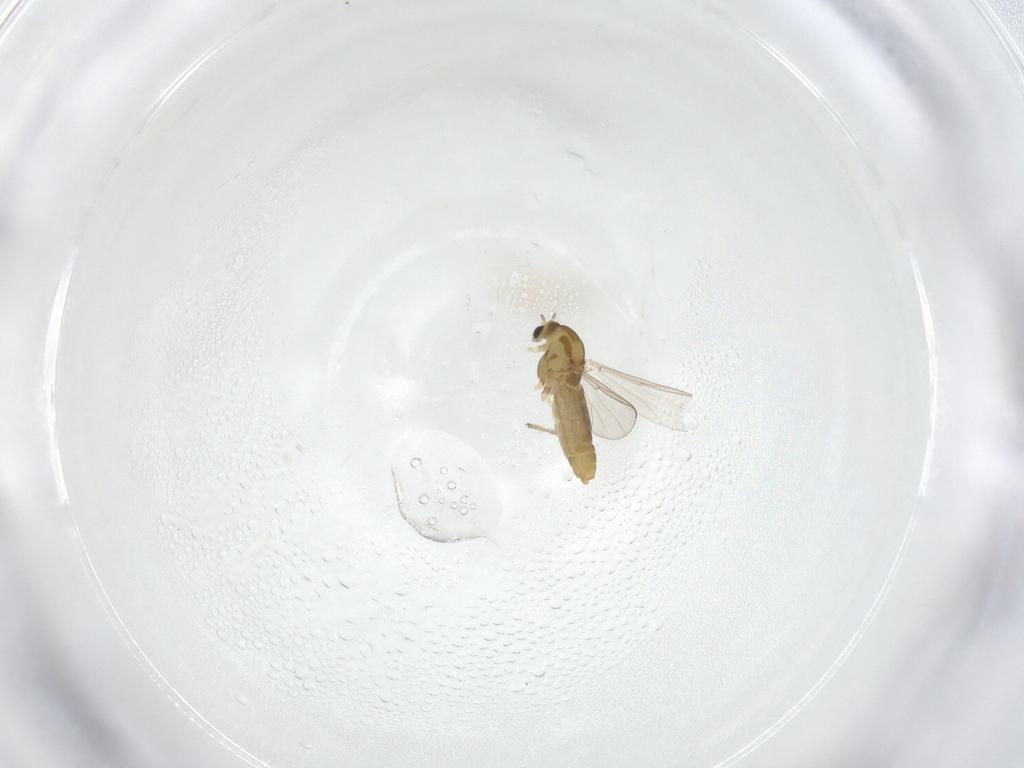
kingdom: Animalia
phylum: Arthropoda
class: Insecta
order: Diptera
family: Chironomidae
